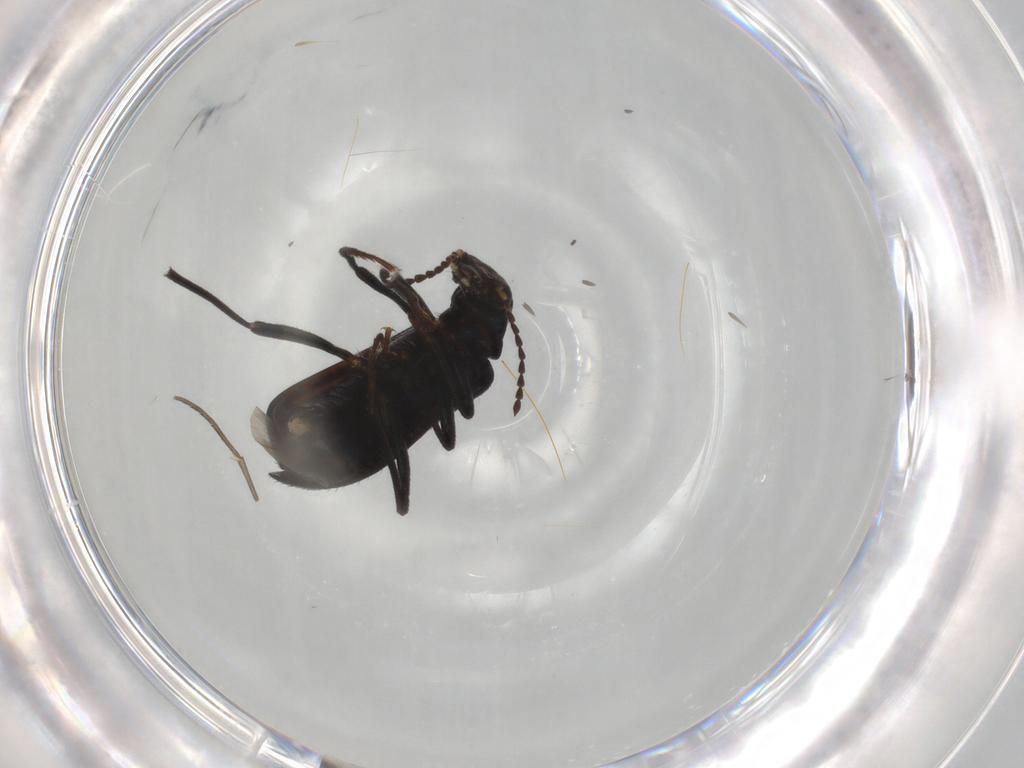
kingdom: Animalia
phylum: Arthropoda
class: Insecta
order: Coleoptera
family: Melyridae
